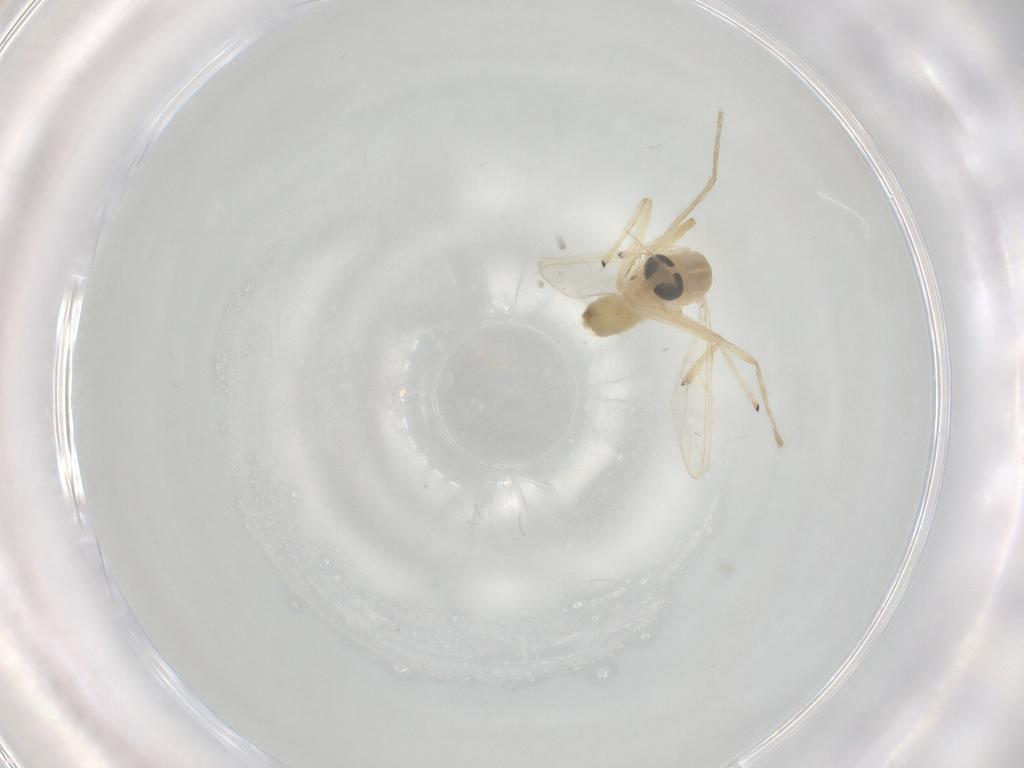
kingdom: Animalia
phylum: Arthropoda
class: Insecta
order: Diptera
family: Chironomidae
